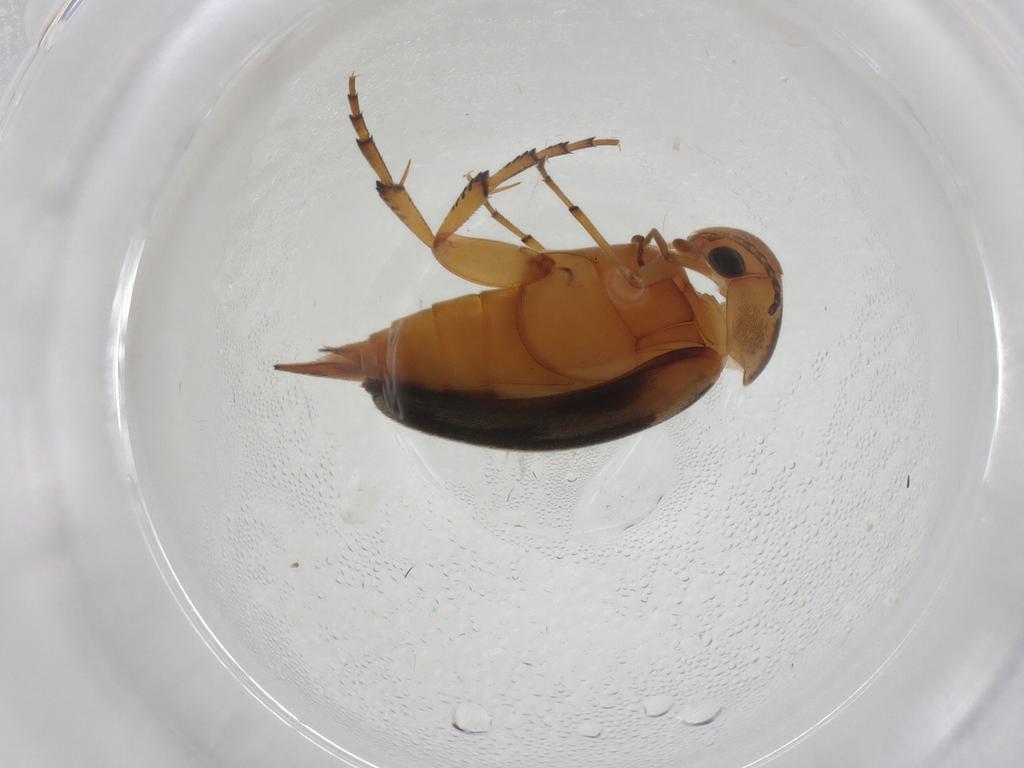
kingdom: Animalia
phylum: Arthropoda
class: Insecta
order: Coleoptera
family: Mordellidae
